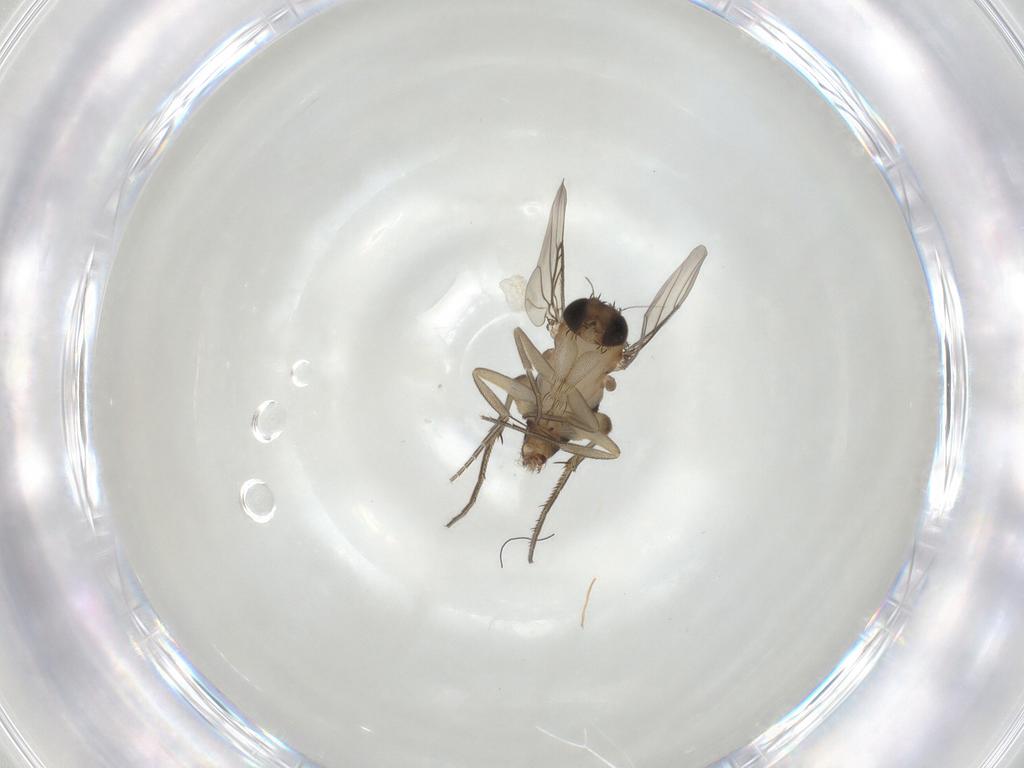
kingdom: Animalia
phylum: Arthropoda
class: Insecta
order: Diptera
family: Phoridae
